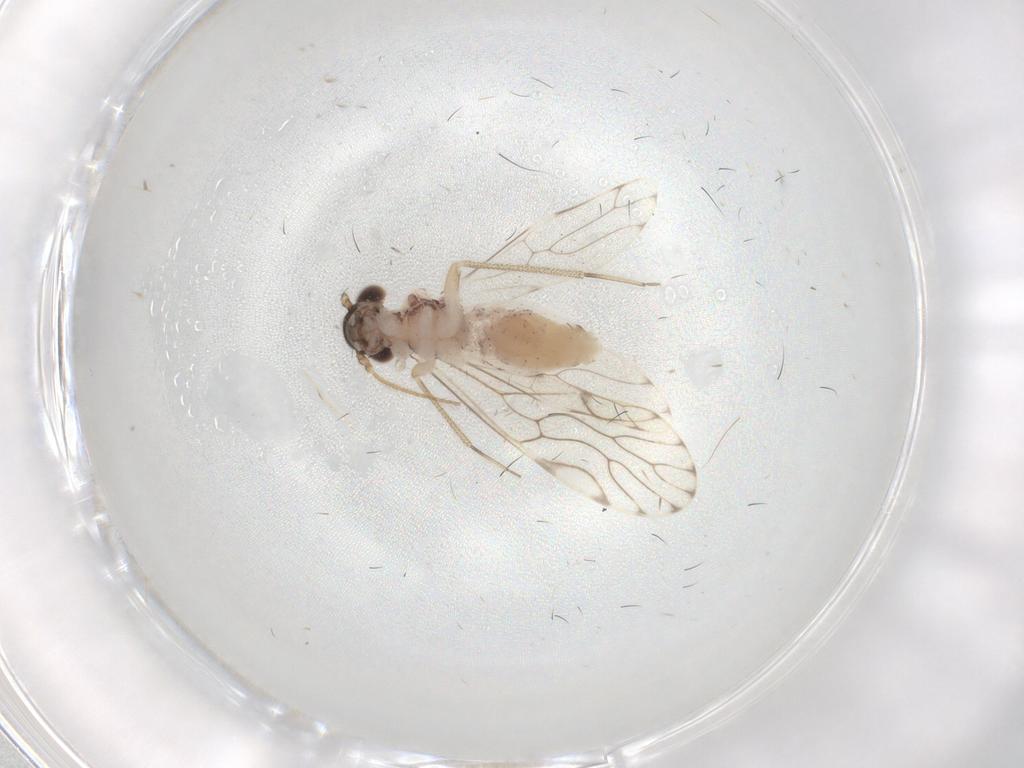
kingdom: Animalia
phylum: Arthropoda
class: Insecta
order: Psocodea
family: Epipsocidae
